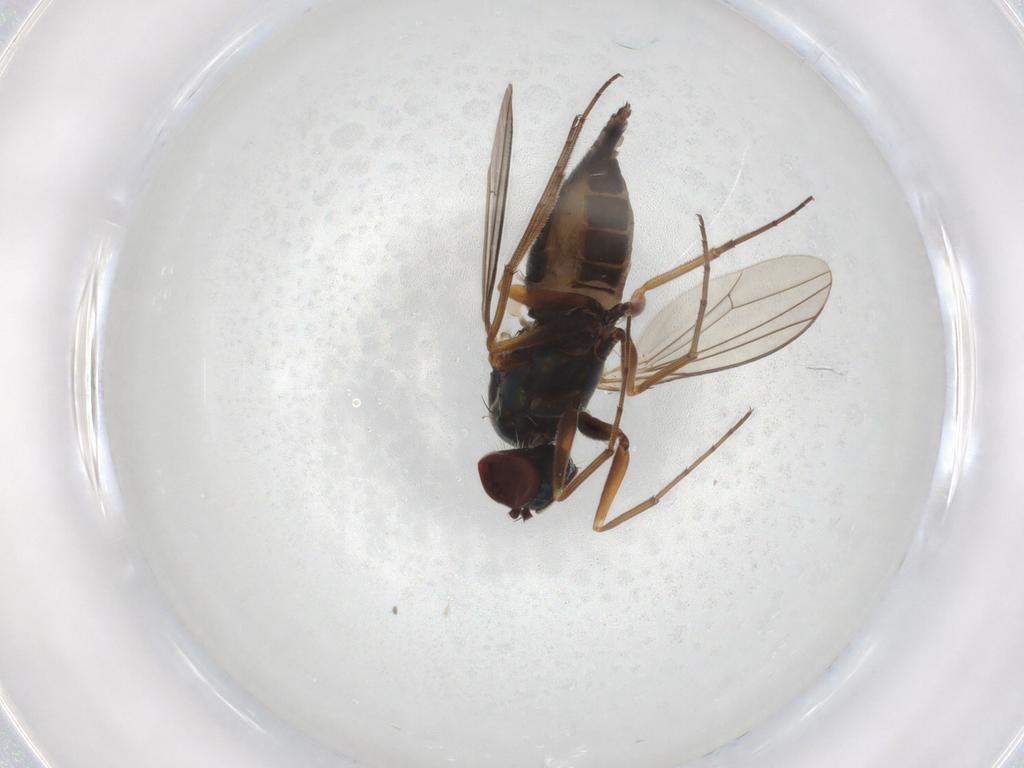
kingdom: Animalia
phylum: Arthropoda
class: Insecta
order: Diptera
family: Dolichopodidae
